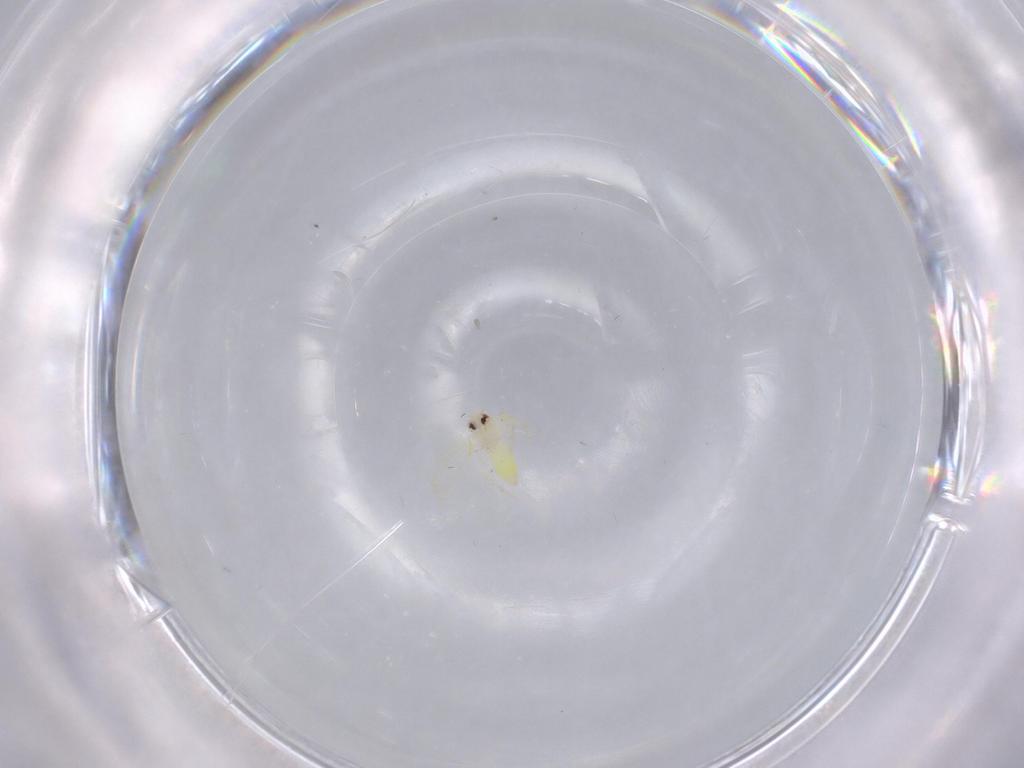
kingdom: Animalia
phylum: Arthropoda
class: Insecta
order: Hemiptera
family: Aleyrodidae
